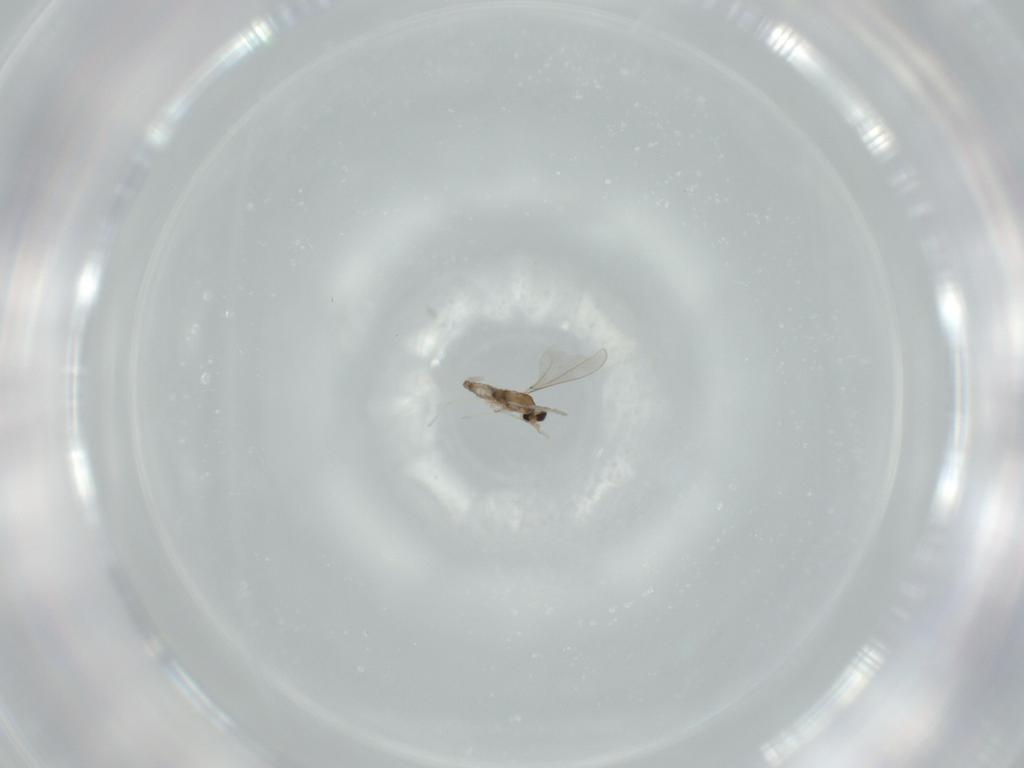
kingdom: Animalia
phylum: Arthropoda
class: Insecta
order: Diptera
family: Cecidomyiidae
